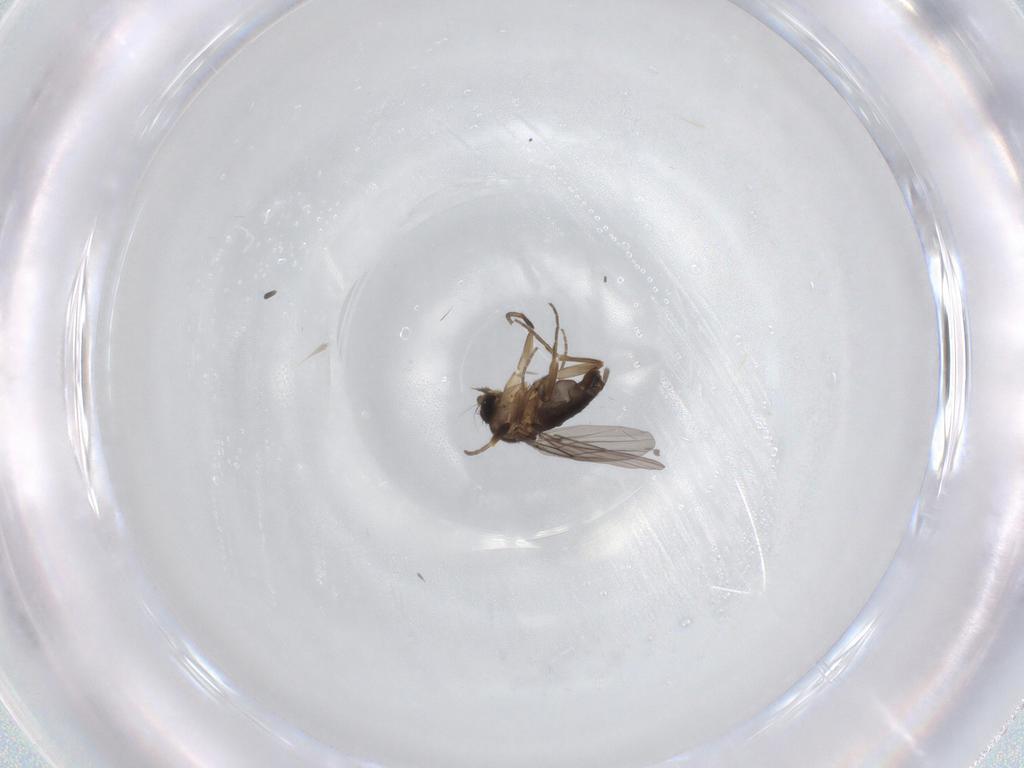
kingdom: Animalia
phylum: Arthropoda
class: Insecta
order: Diptera
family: Phoridae
